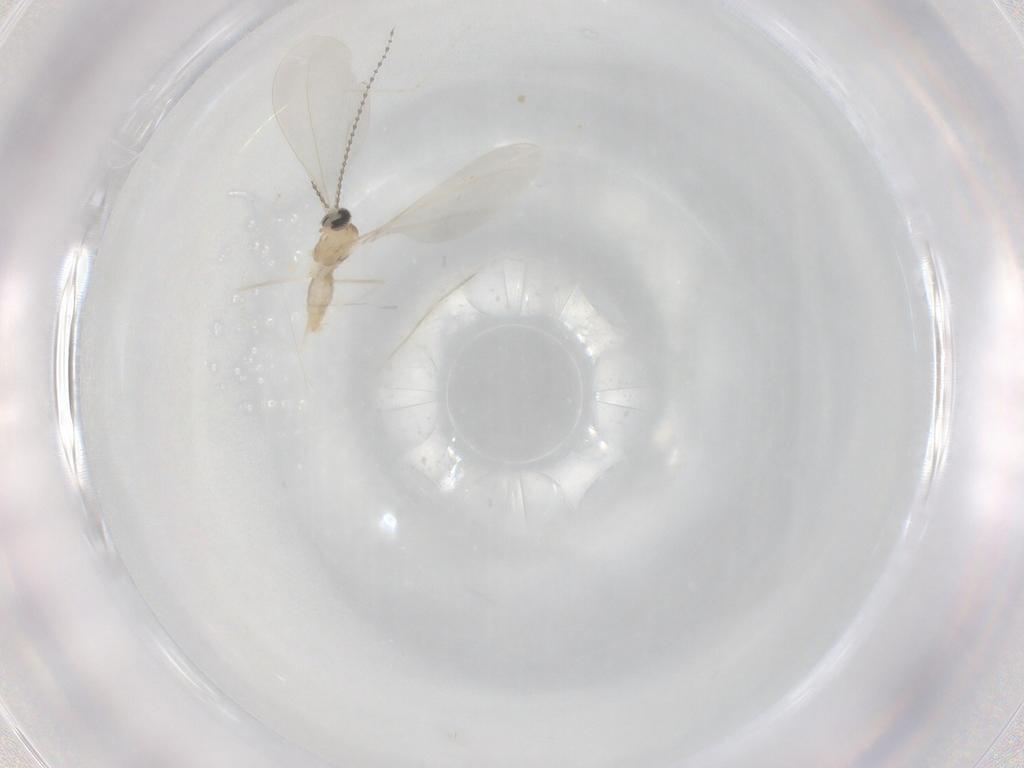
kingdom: Animalia
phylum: Arthropoda
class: Insecta
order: Diptera
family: Cecidomyiidae
